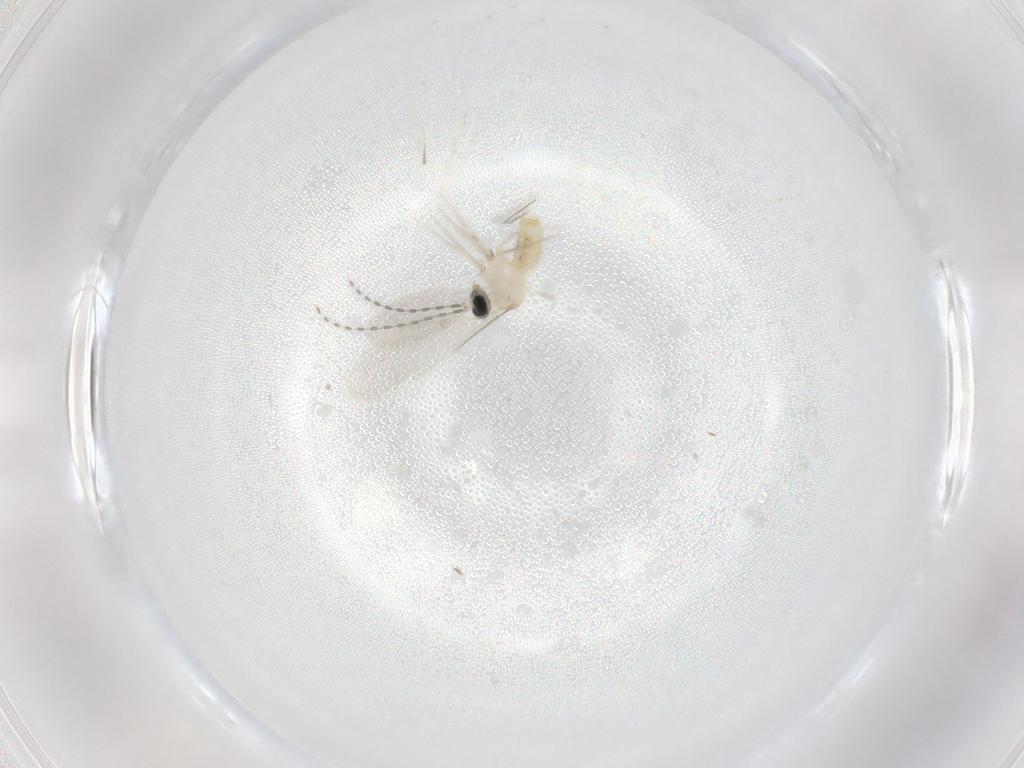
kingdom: Animalia
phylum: Arthropoda
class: Insecta
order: Diptera
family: Cecidomyiidae
